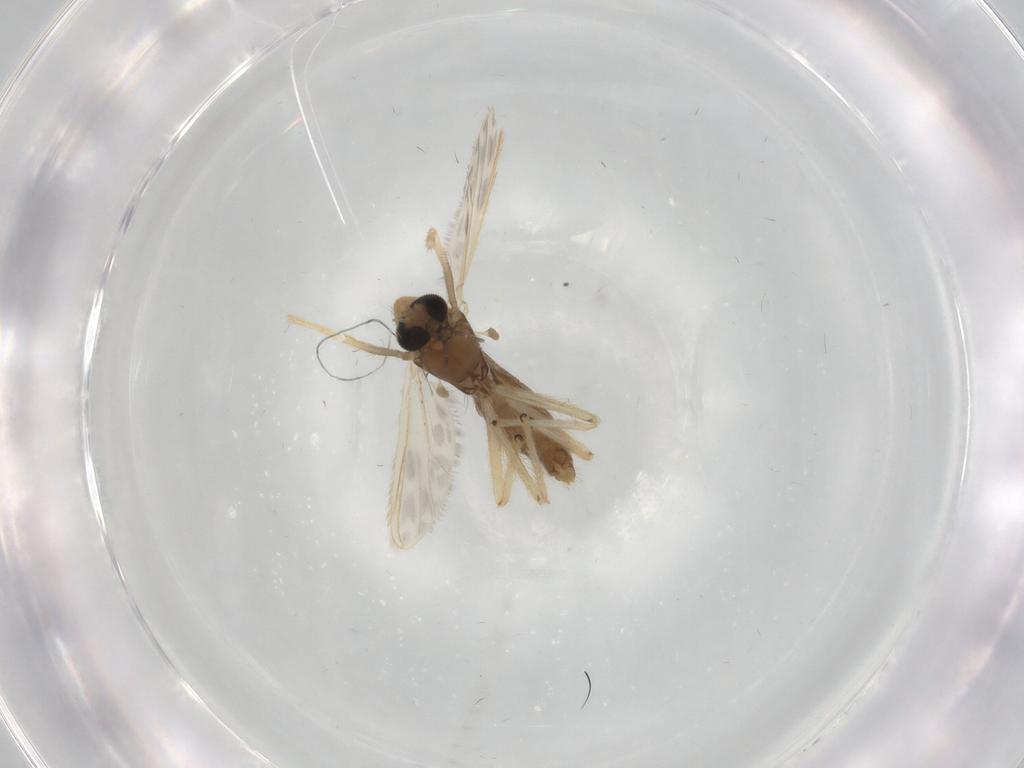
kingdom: Animalia
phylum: Arthropoda
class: Insecta
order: Diptera
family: Chironomidae
